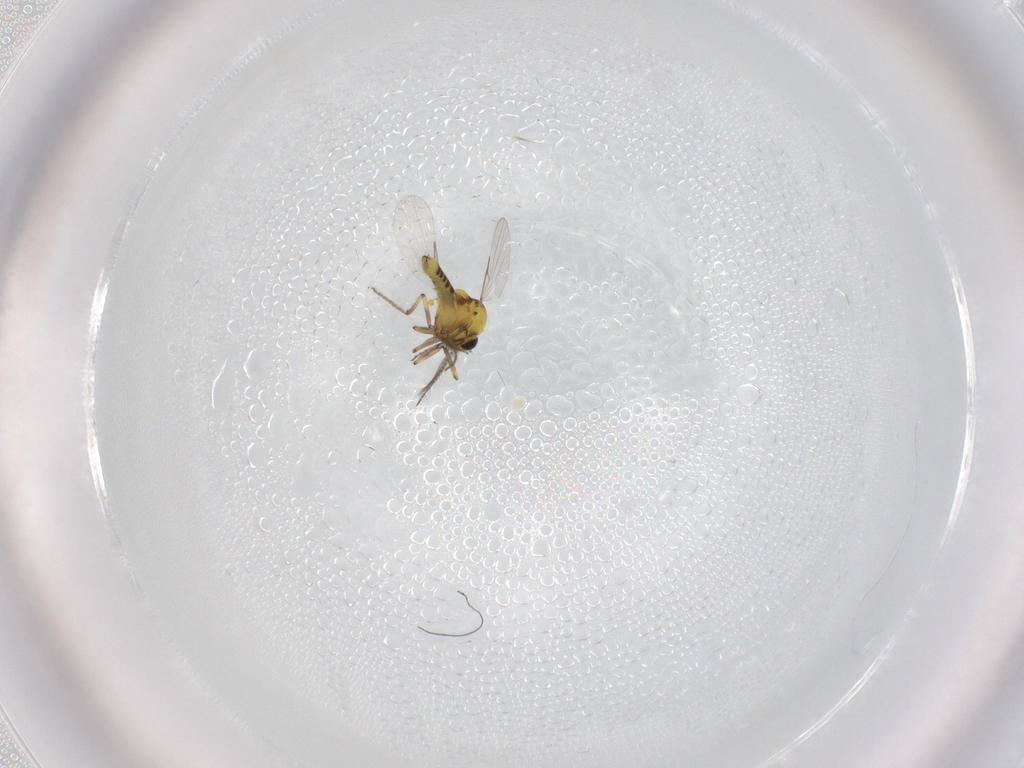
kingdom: Animalia
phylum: Arthropoda
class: Insecta
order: Diptera
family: Ceratopogonidae
